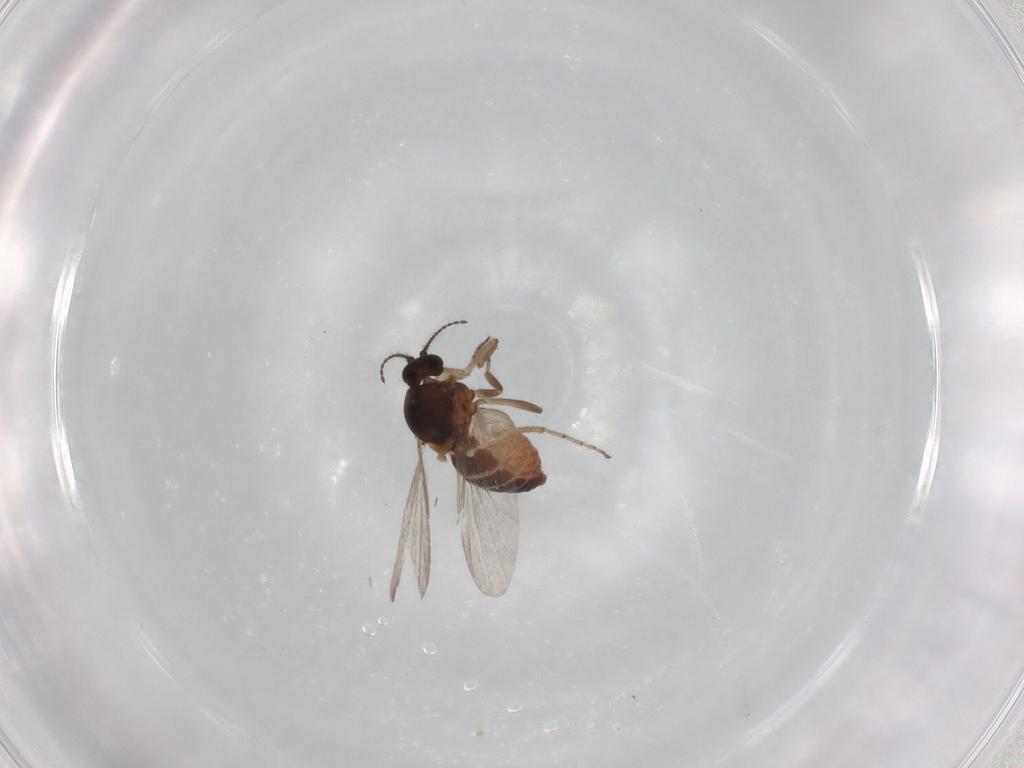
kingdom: Animalia
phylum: Arthropoda
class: Insecta
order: Diptera
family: Ceratopogonidae
